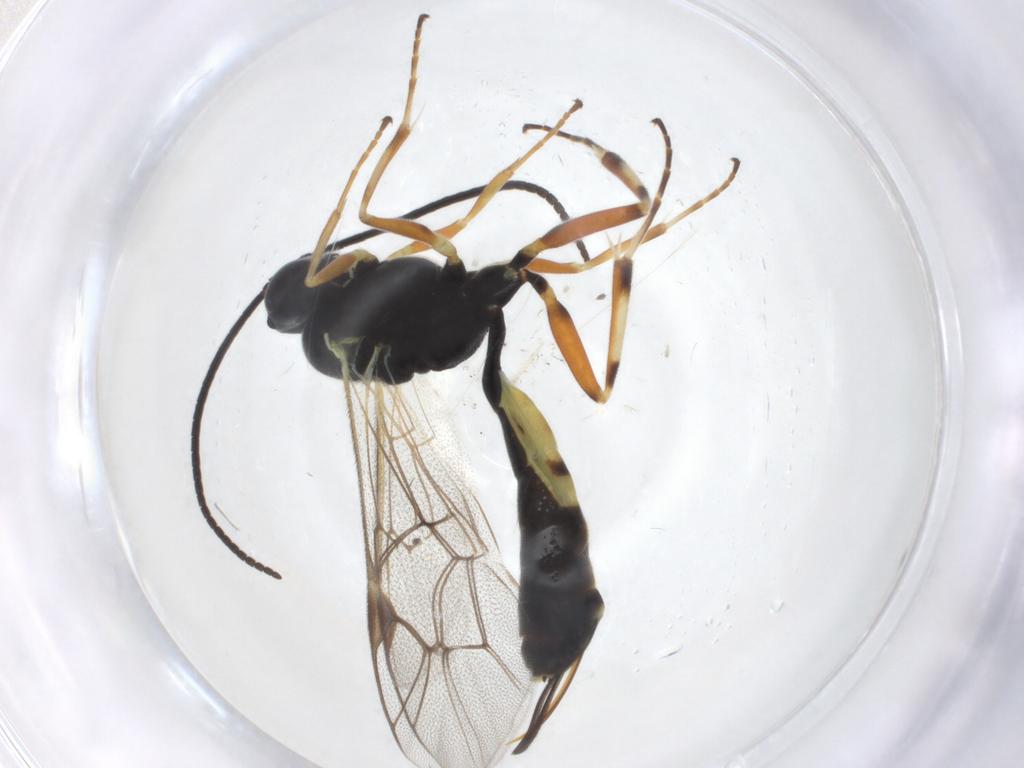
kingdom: Animalia
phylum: Arthropoda
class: Insecta
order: Hymenoptera
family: Ichneumonidae
